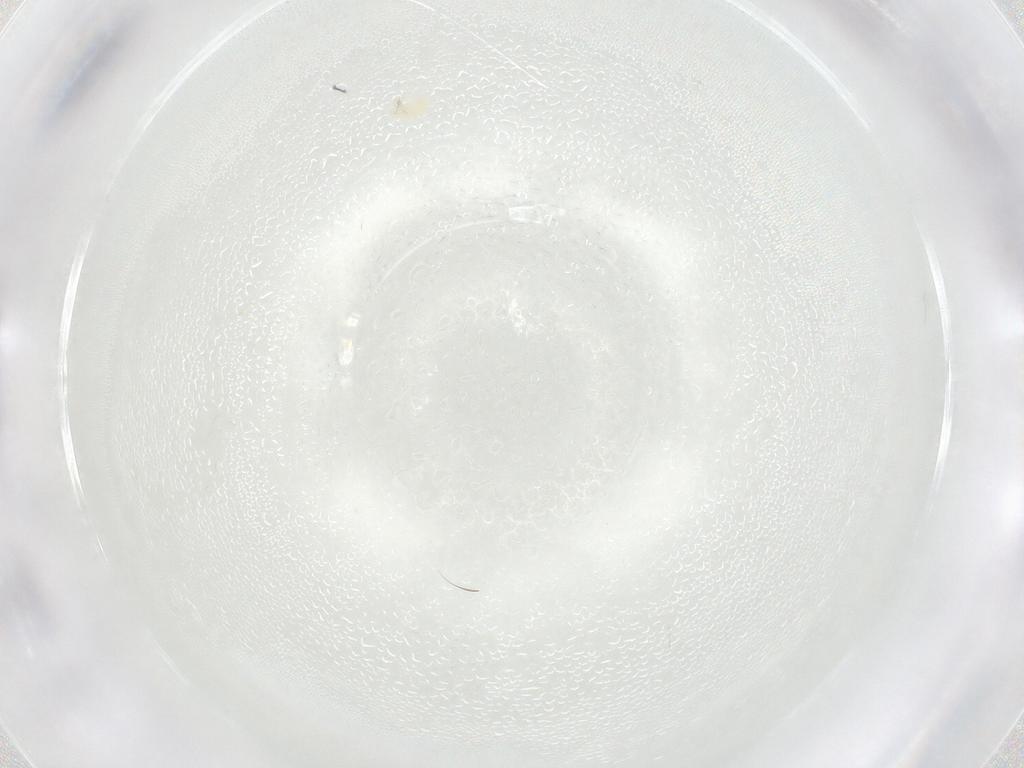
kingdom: Animalia
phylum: Arthropoda
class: Arachnida
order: Trombidiformes
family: Tetranychidae
